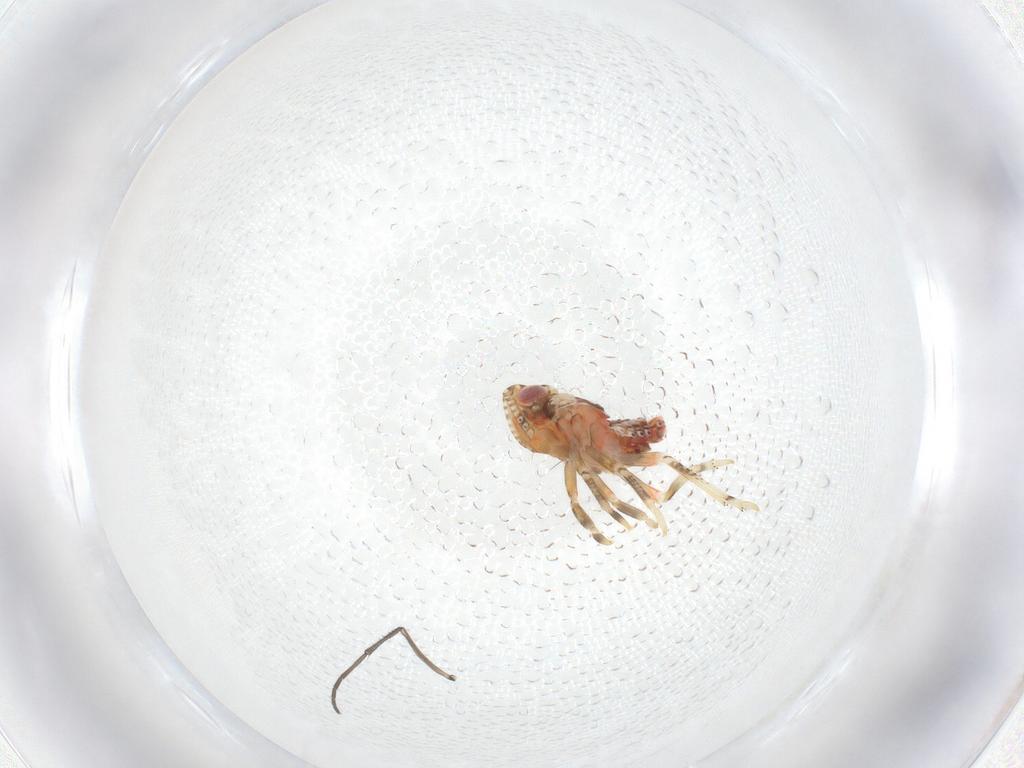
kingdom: Animalia
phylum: Arthropoda
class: Insecta
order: Hemiptera
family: Tropiduchidae
